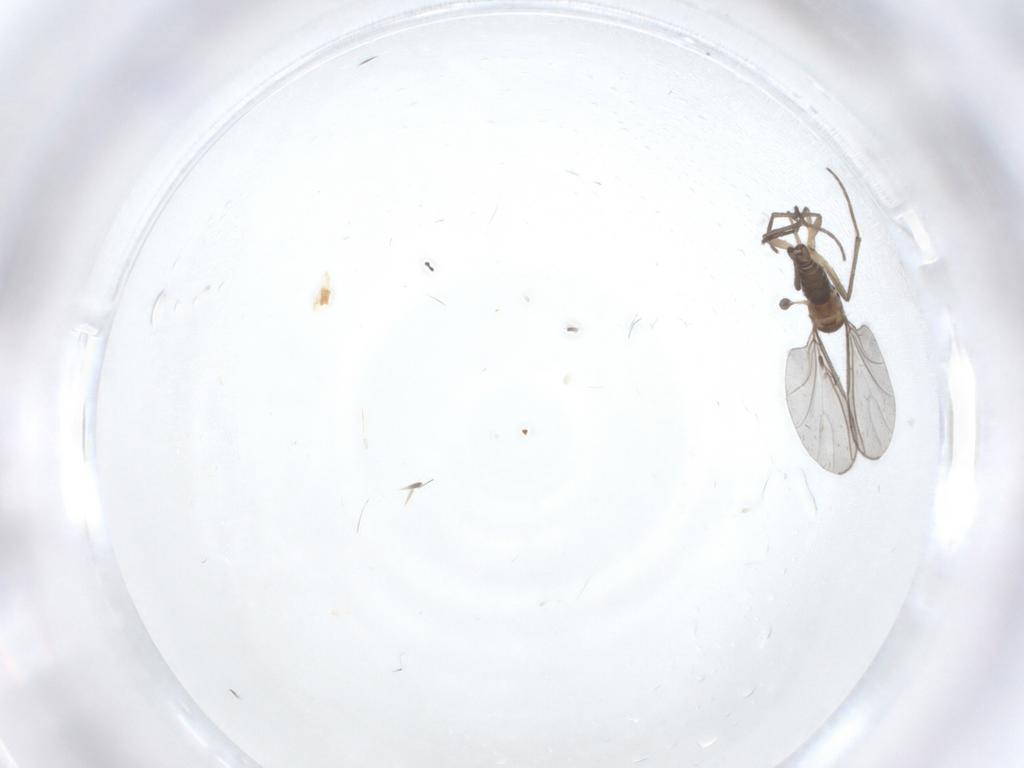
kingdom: Animalia
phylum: Arthropoda
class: Insecta
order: Diptera
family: Sciaridae
